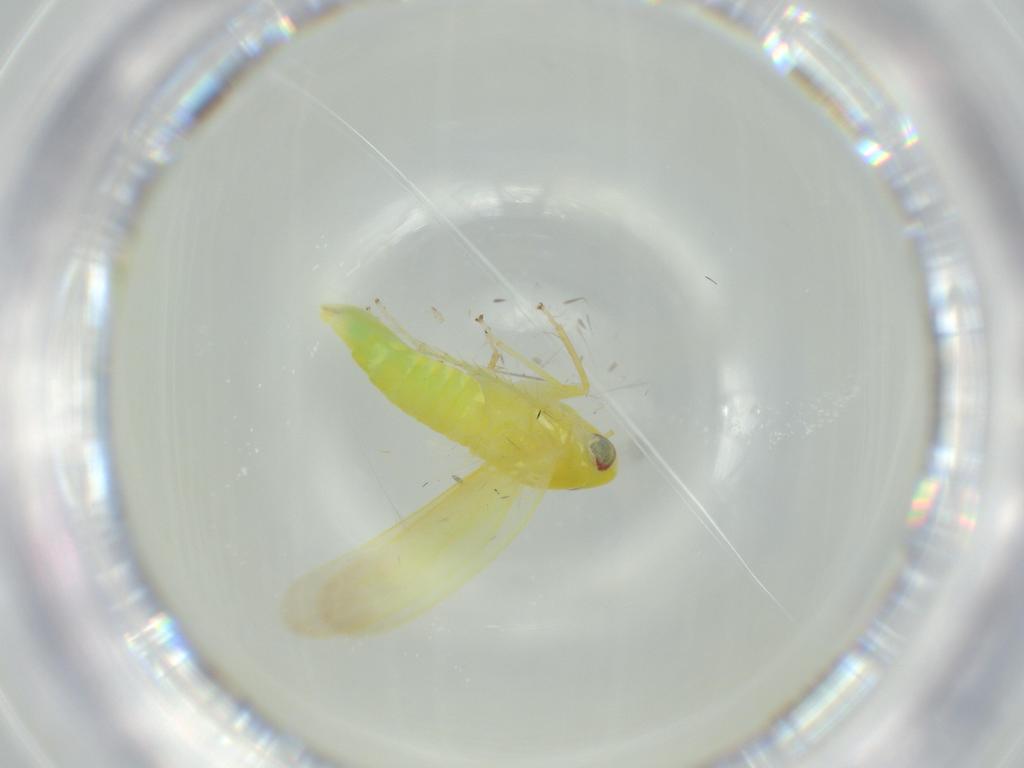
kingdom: Animalia
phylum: Arthropoda
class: Insecta
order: Hemiptera
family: Cicadellidae
